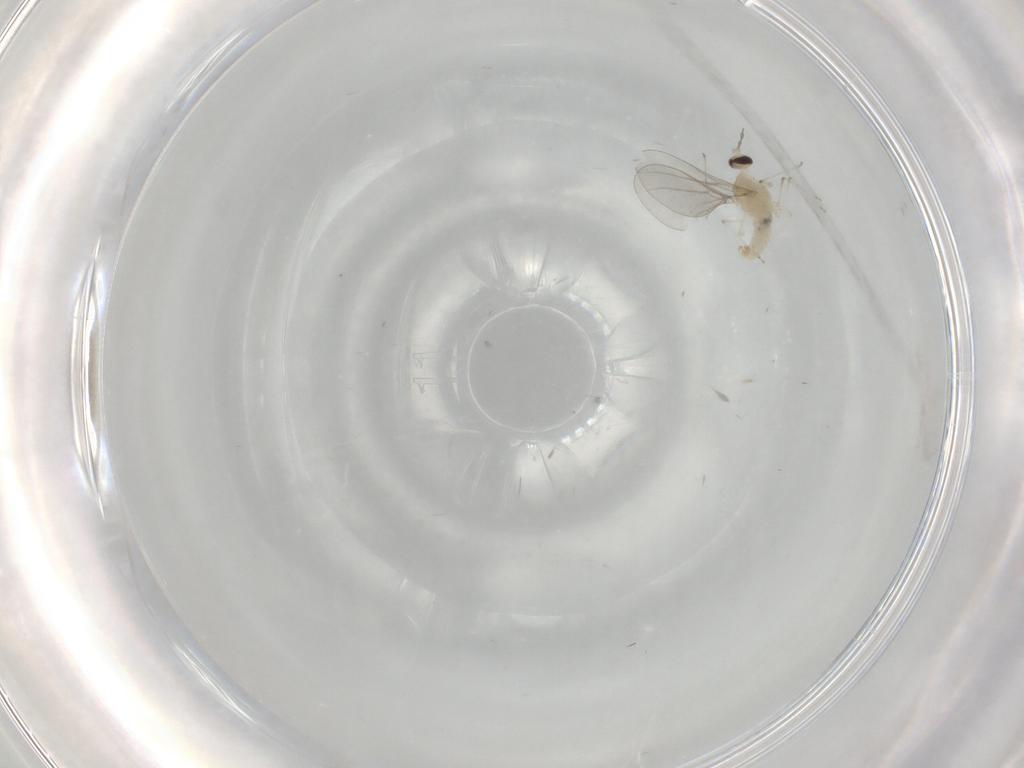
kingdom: Animalia
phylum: Arthropoda
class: Insecta
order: Diptera
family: Cecidomyiidae
